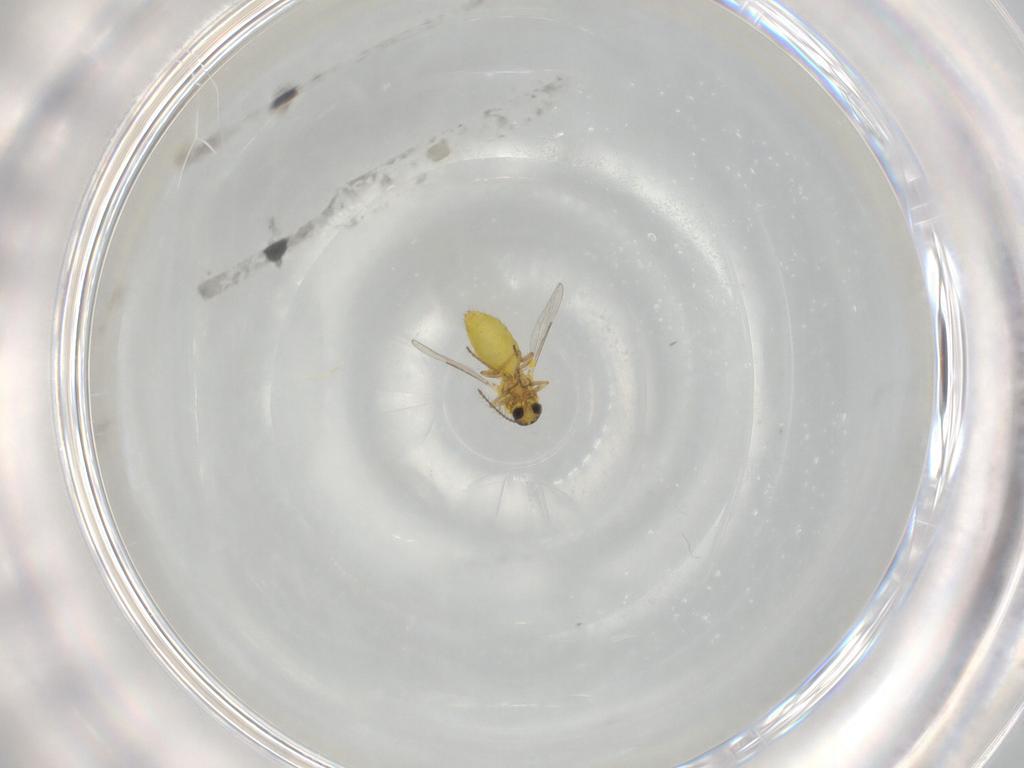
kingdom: Animalia
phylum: Arthropoda
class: Insecta
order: Diptera
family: Ceratopogonidae
